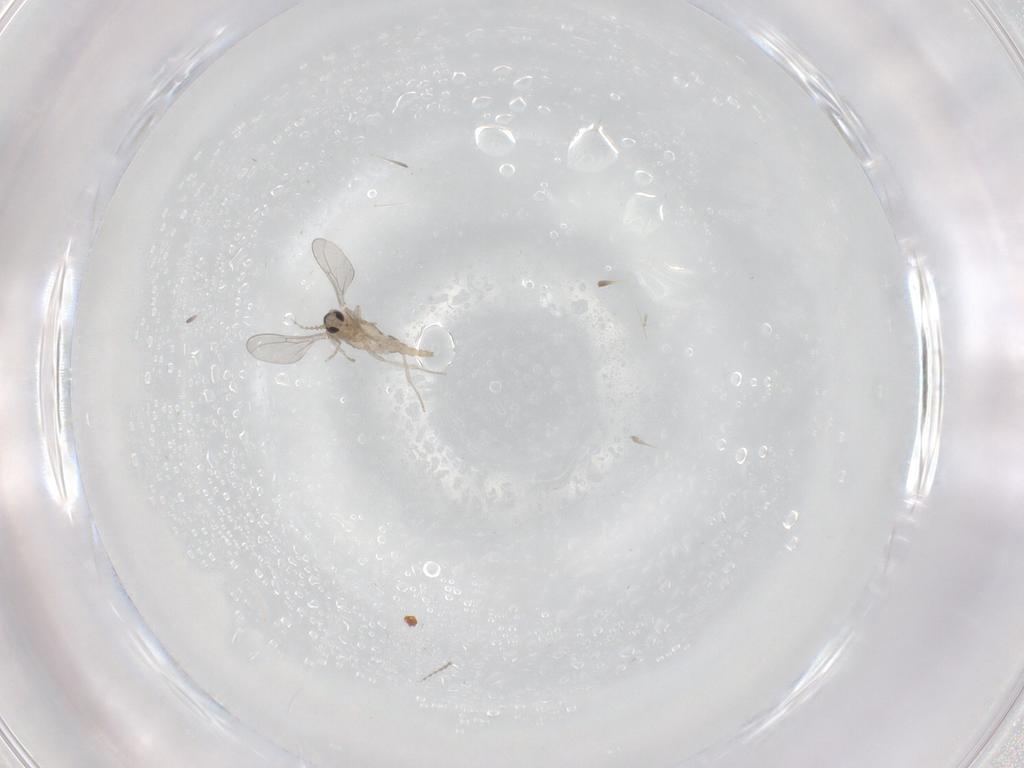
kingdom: Animalia
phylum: Arthropoda
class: Insecta
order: Diptera
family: Cecidomyiidae
